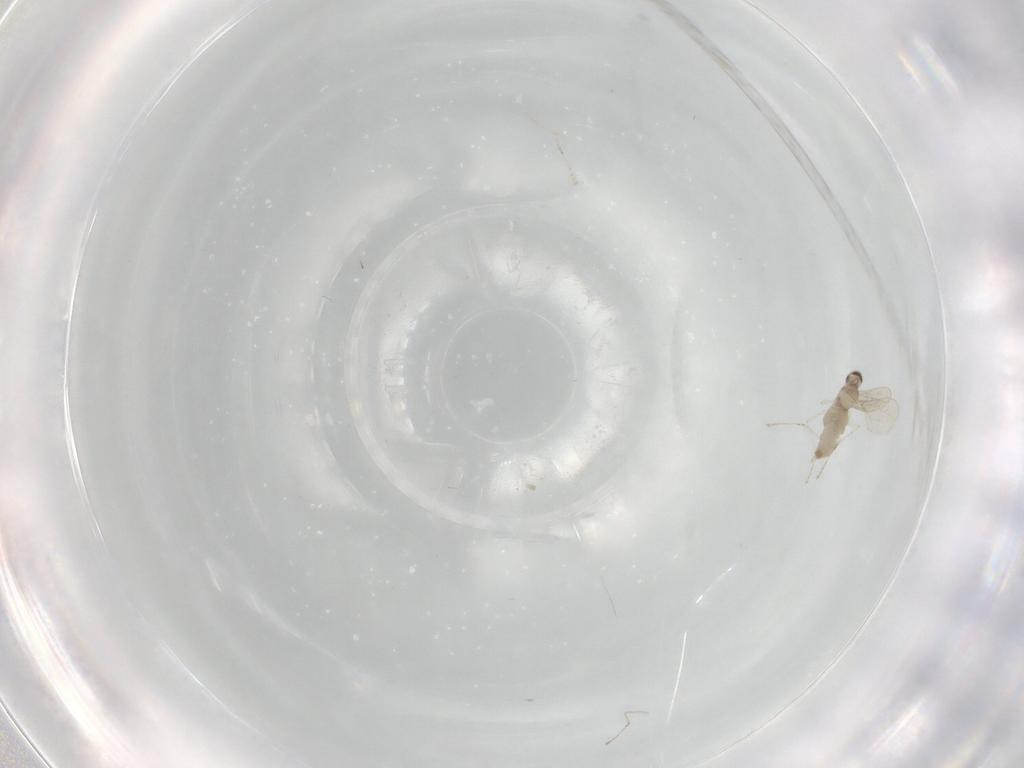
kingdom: Animalia
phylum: Arthropoda
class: Insecta
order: Diptera
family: Cecidomyiidae
